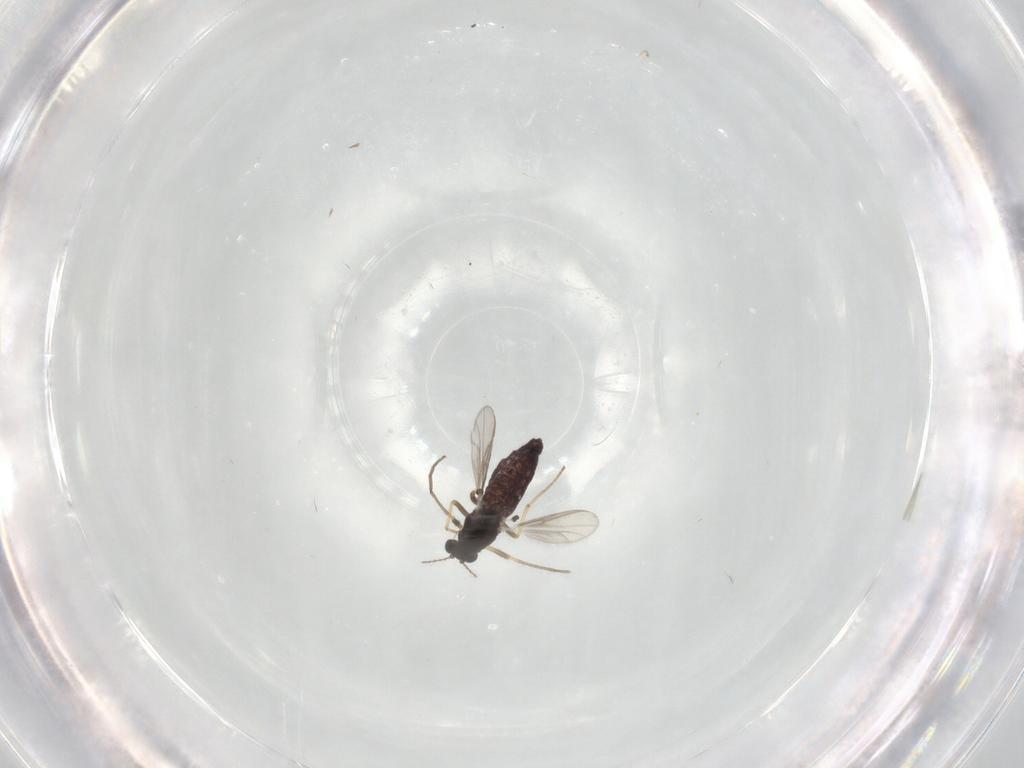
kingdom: Animalia
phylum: Arthropoda
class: Insecta
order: Diptera
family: Chironomidae
